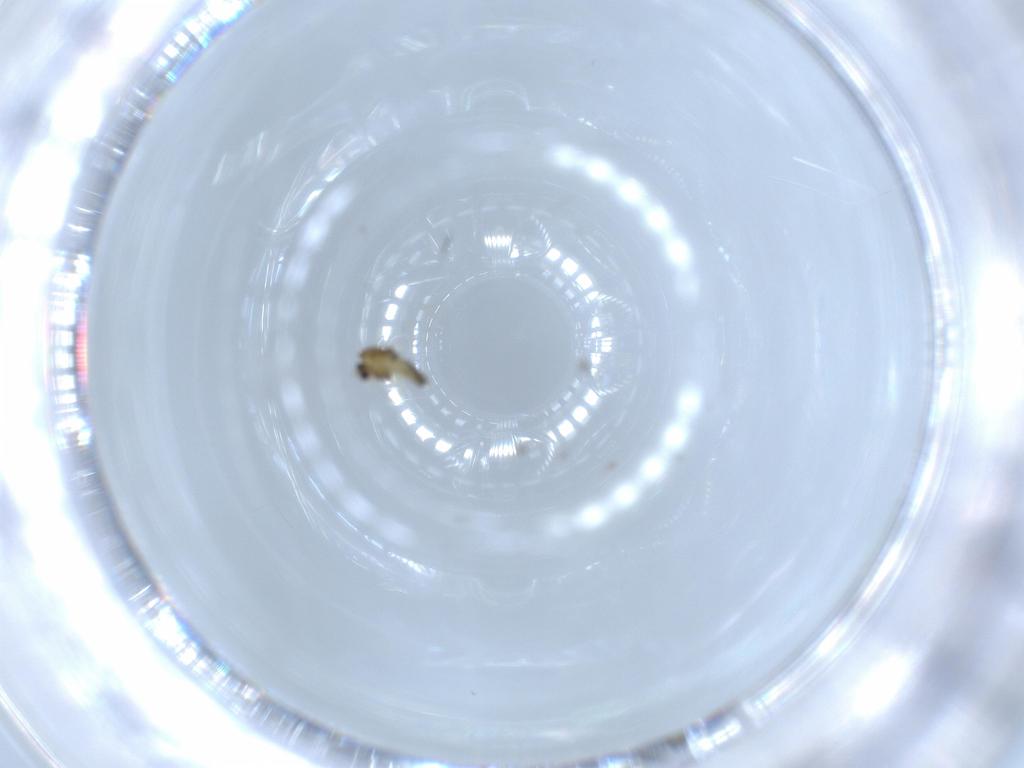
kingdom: Animalia
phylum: Arthropoda
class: Insecta
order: Diptera
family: Chironomidae
